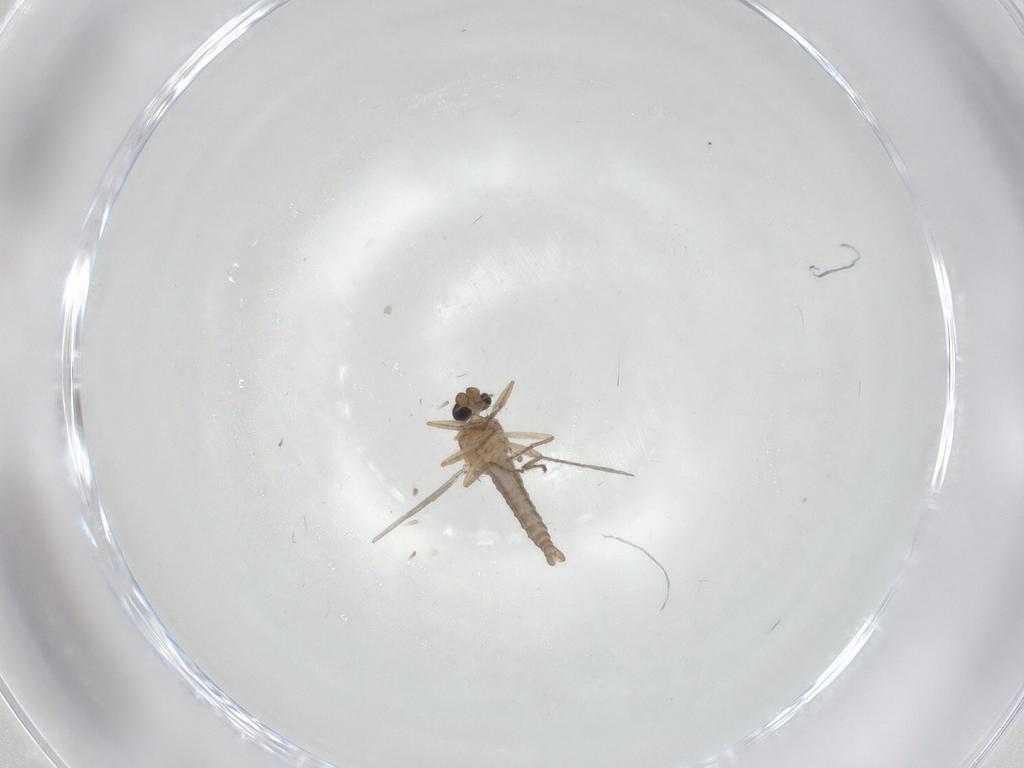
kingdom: Animalia
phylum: Arthropoda
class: Insecta
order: Diptera
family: Ceratopogonidae
